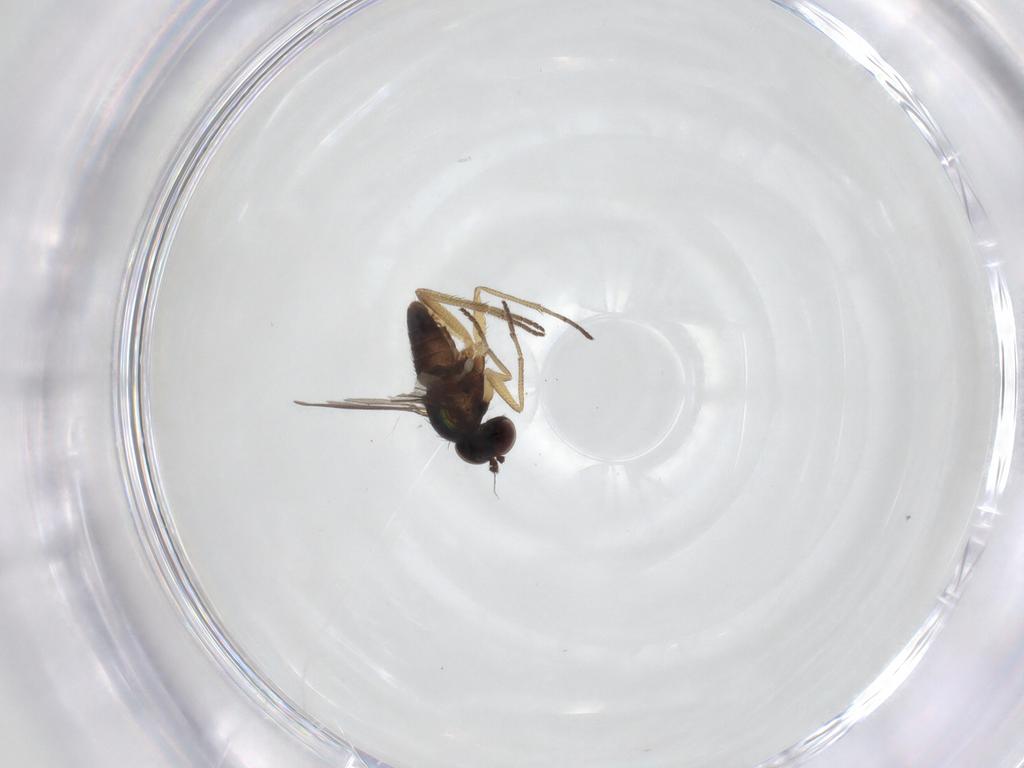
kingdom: Animalia
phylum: Arthropoda
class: Insecta
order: Diptera
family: Dolichopodidae
